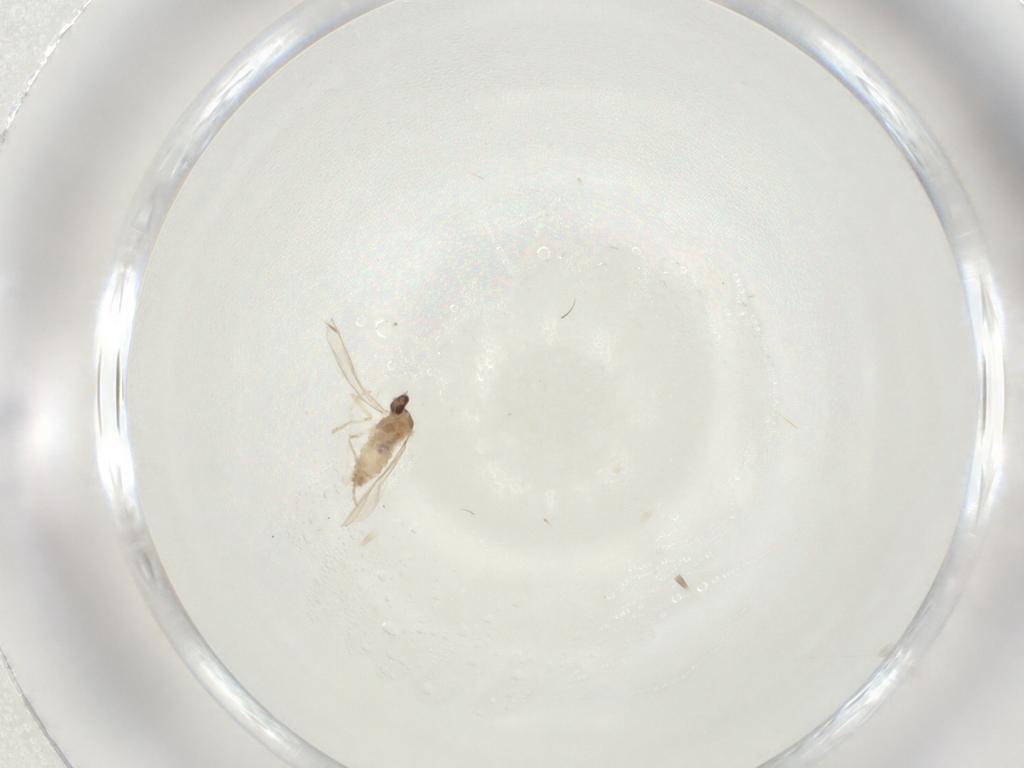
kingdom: Animalia
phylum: Arthropoda
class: Insecta
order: Diptera
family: Cecidomyiidae
